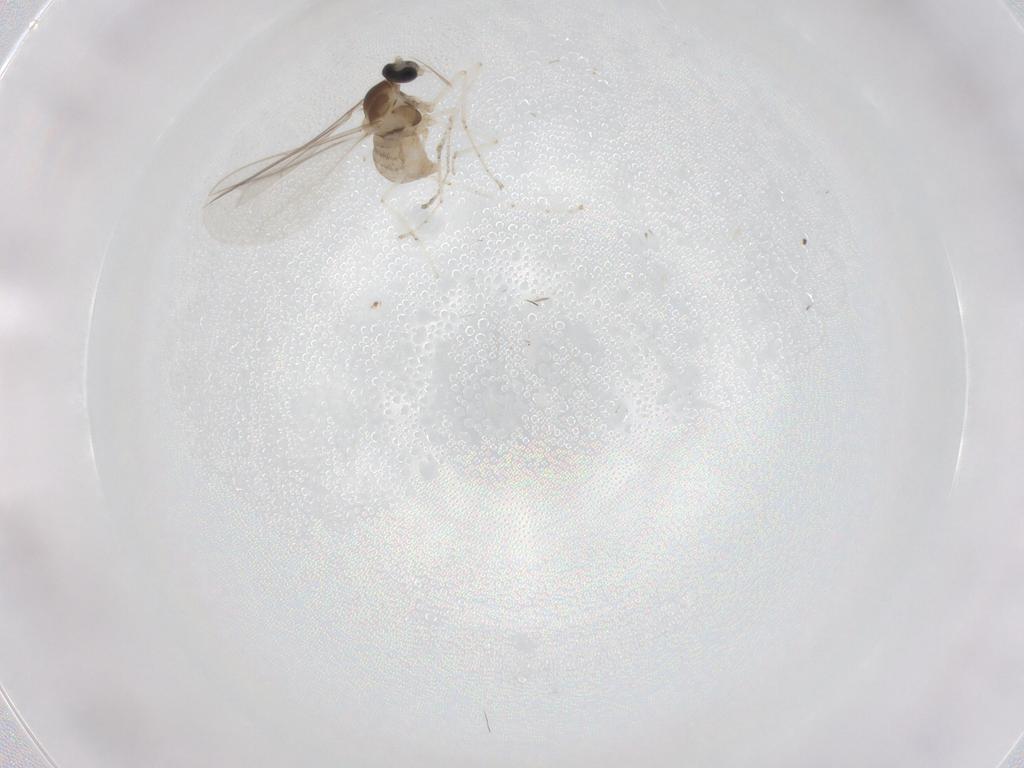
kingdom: Animalia
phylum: Arthropoda
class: Insecta
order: Diptera
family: Cecidomyiidae
